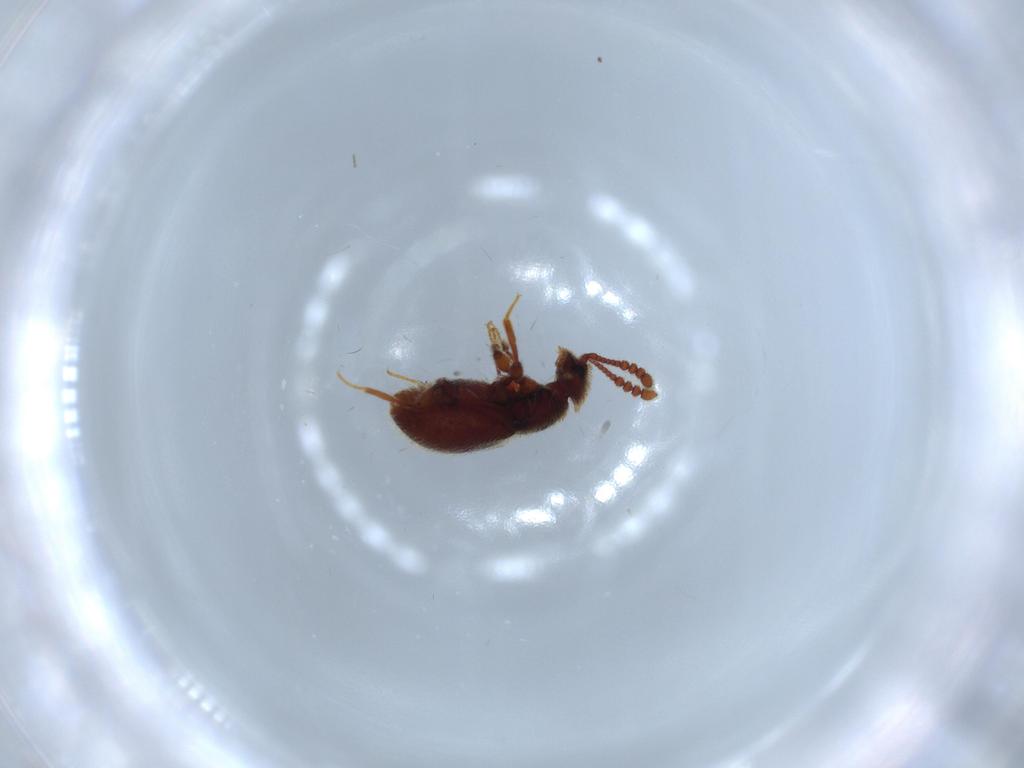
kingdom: Animalia
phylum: Arthropoda
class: Insecta
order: Coleoptera
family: Staphylinidae
